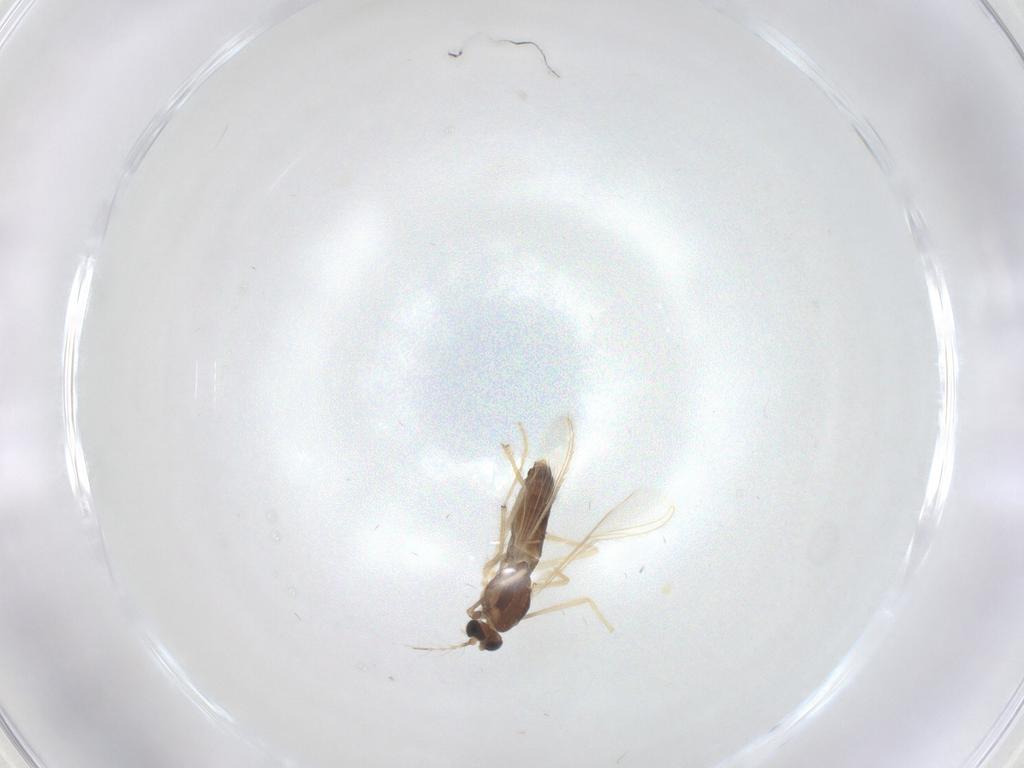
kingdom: Animalia
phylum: Arthropoda
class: Insecta
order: Diptera
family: Chironomidae
